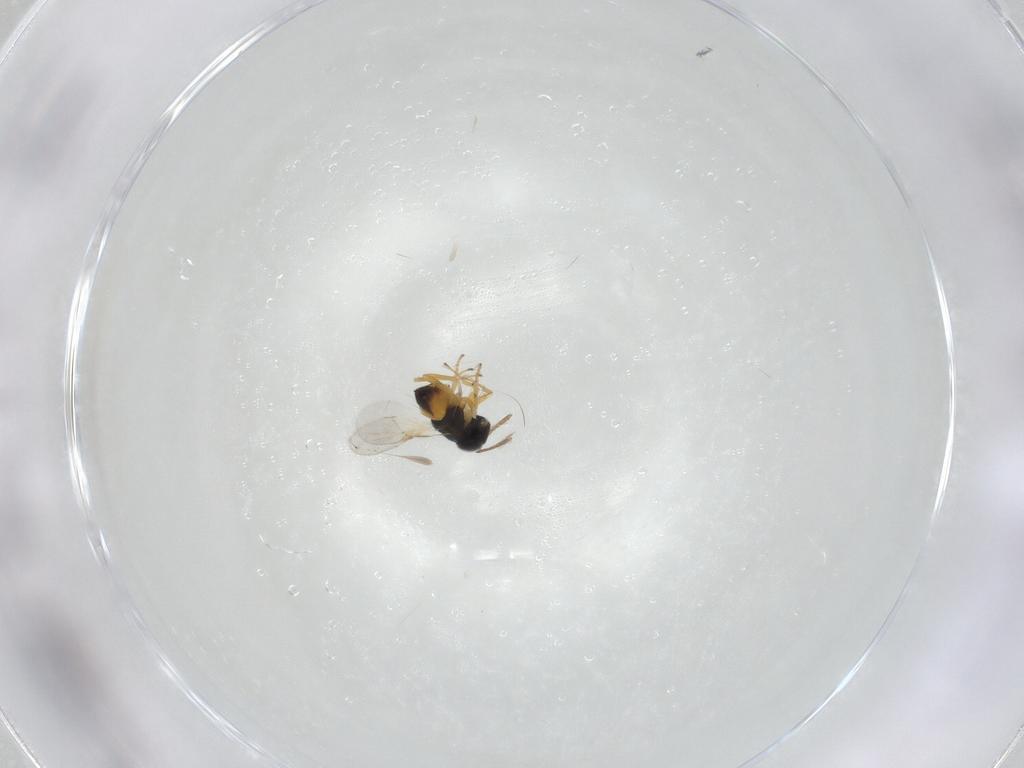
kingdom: Animalia
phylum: Arthropoda
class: Insecta
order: Hymenoptera
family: Encyrtidae
